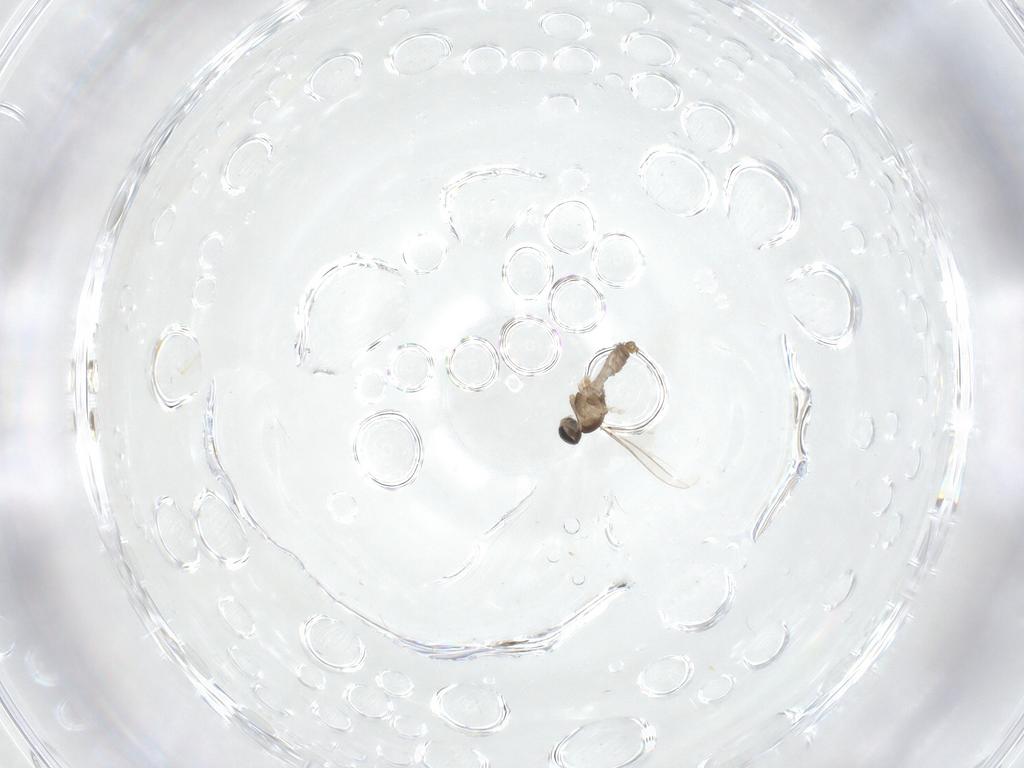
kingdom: Animalia
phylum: Arthropoda
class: Insecta
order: Diptera
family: Cecidomyiidae
